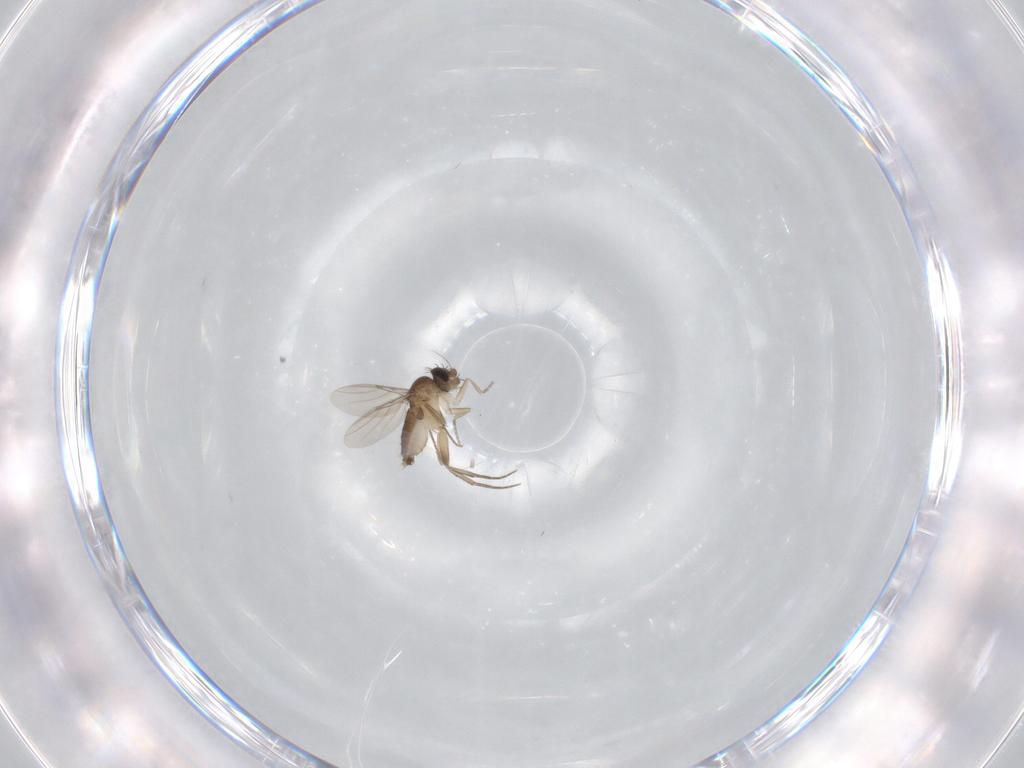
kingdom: Animalia
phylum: Arthropoda
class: Insecta
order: Diptera
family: Phoridae
